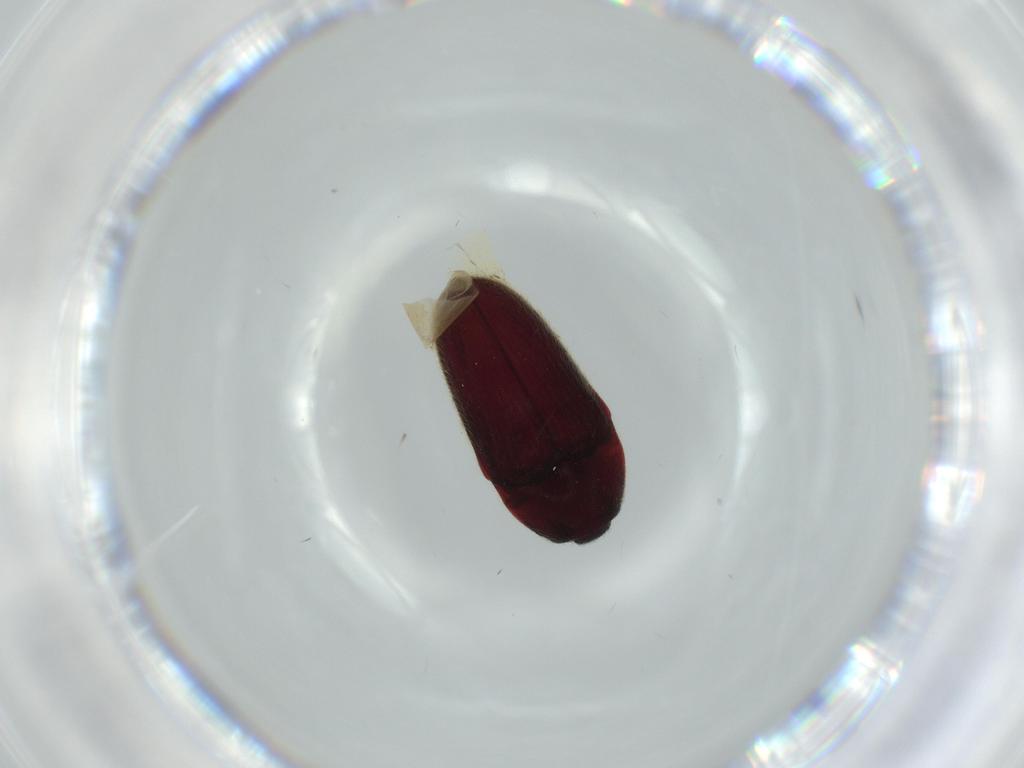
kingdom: Animalia
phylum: Arthropoda
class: Insecta
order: Coleoptera
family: Throscidae
